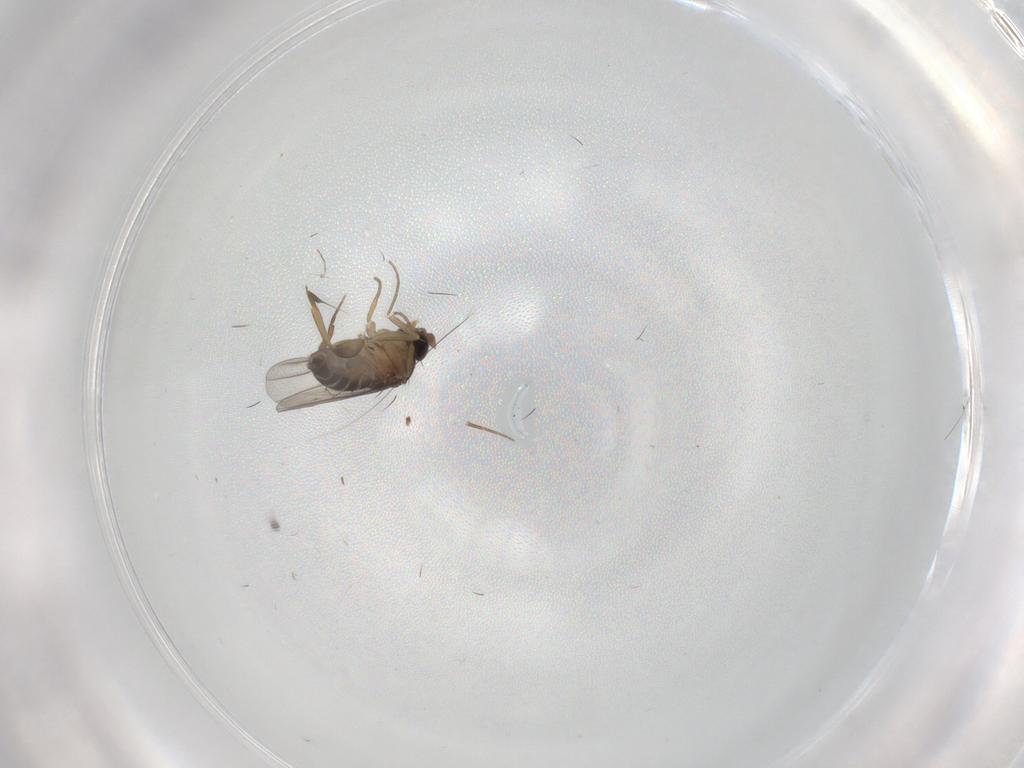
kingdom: Animalia
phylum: Arthropoda
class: Insecta
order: Diptera
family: Phoridae
